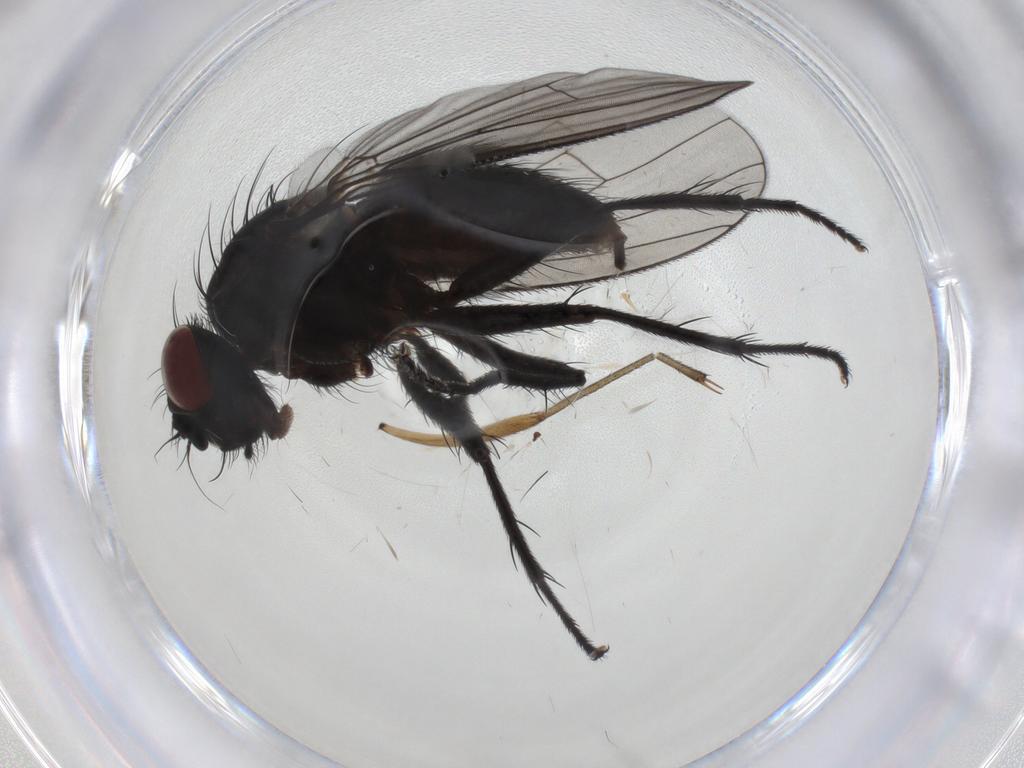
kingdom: Animalia
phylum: Arthropoda
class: Insecta
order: Diptera
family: Muscidae
